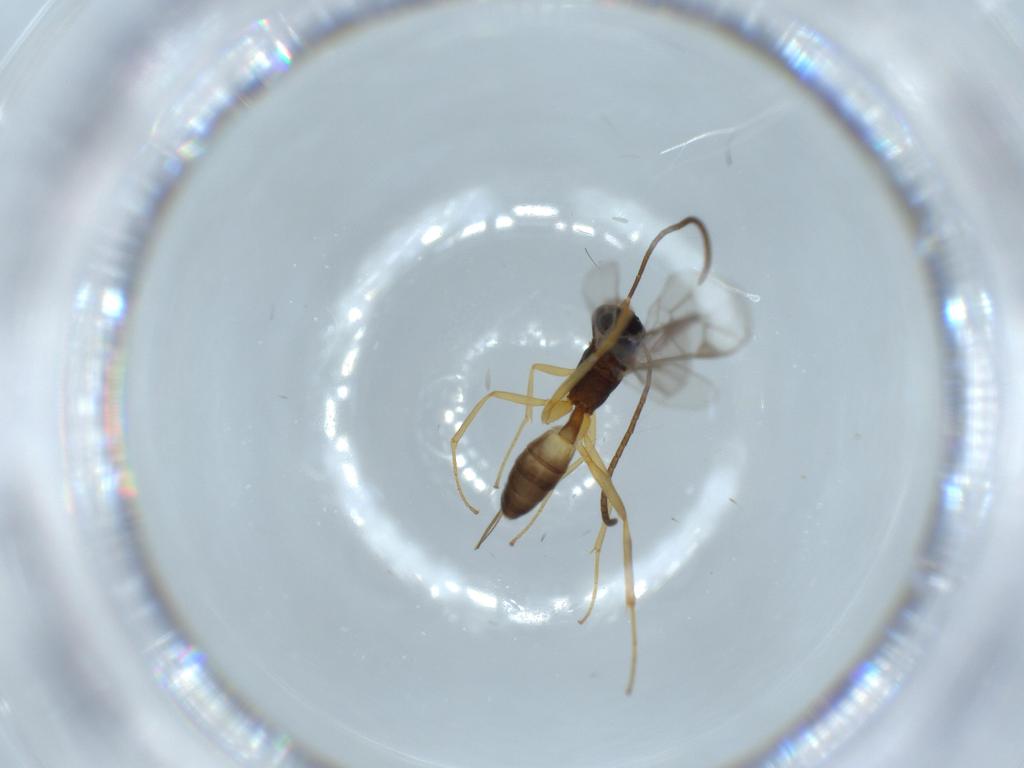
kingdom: Animalia
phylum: Arthropoda
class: Insecta
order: Hymenoptera
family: Ichneumonidae
